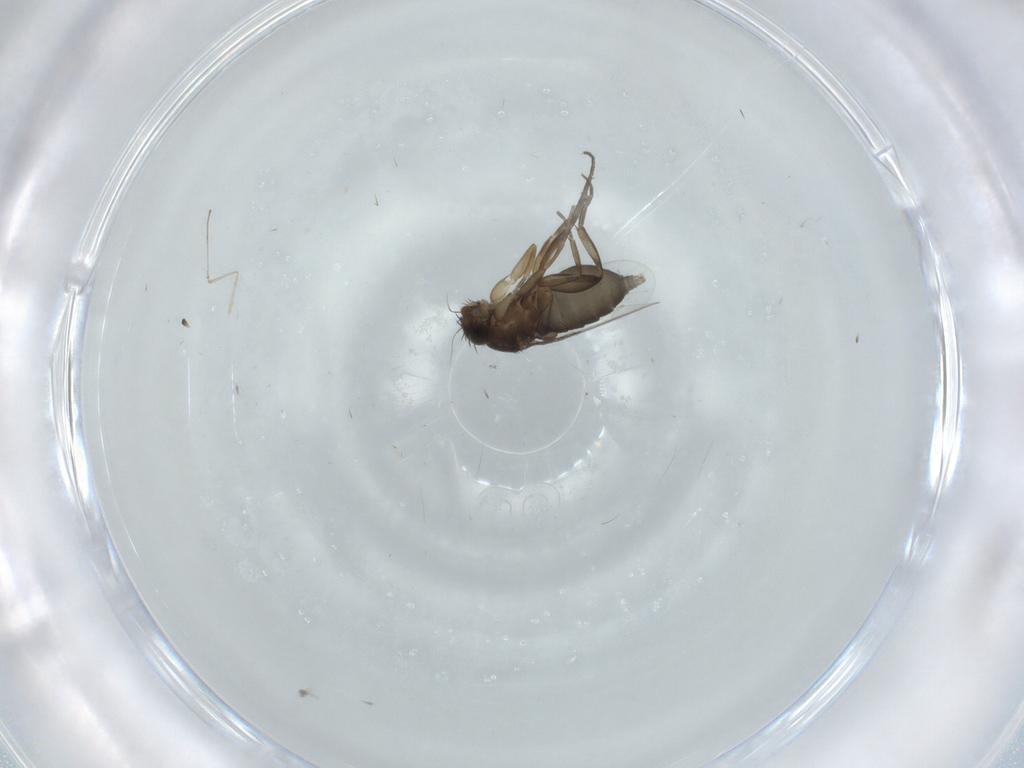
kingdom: Animalia
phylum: Arthropoda
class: Insecta
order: Diptera
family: Phoridae
